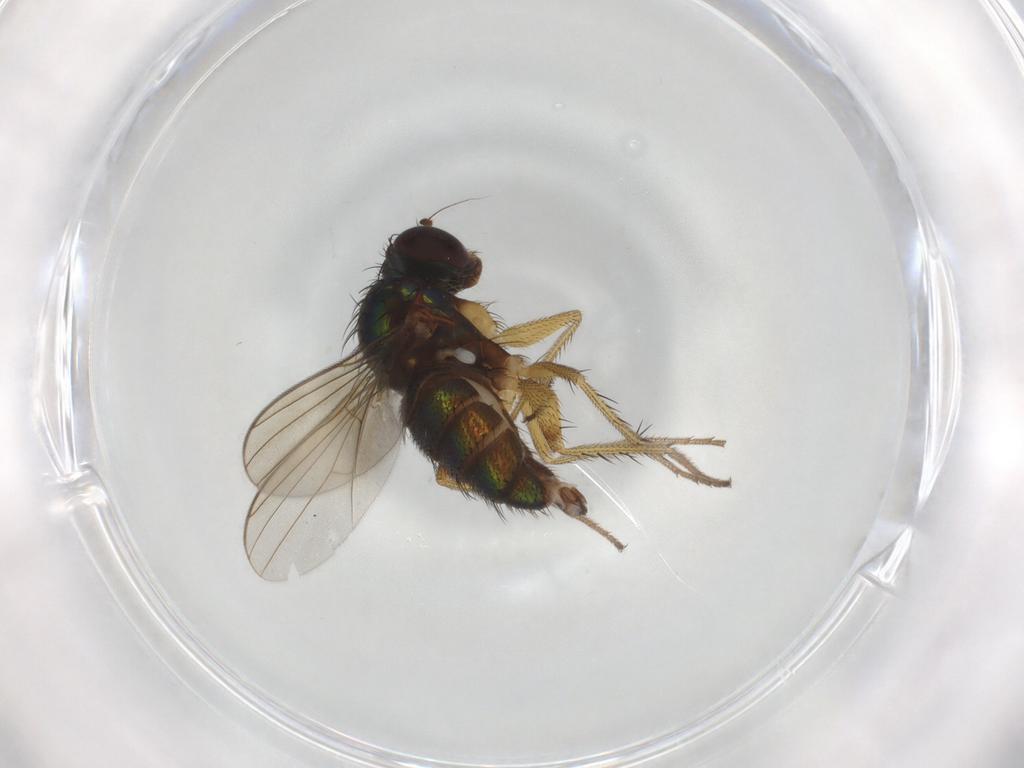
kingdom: Animalia
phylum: Arthropoda
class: Insecta
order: Diptera
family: Dolichopodidae
